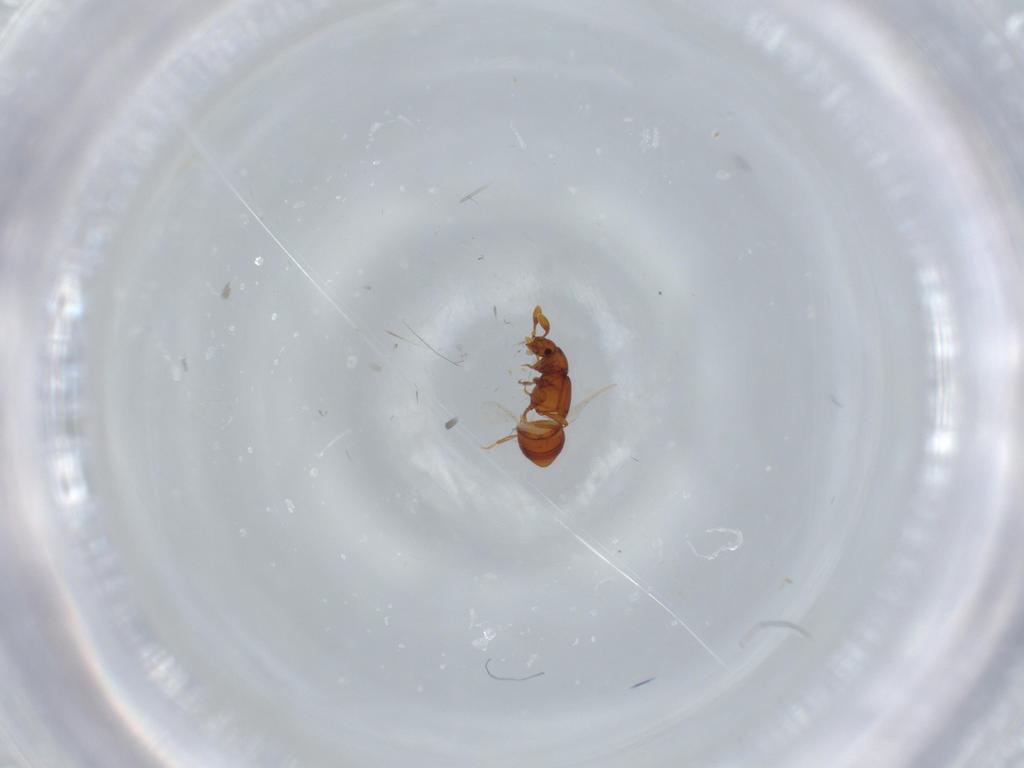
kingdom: Animalia
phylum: Arthropoda
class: Insecta
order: Coleoptera
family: Staphylinidae
